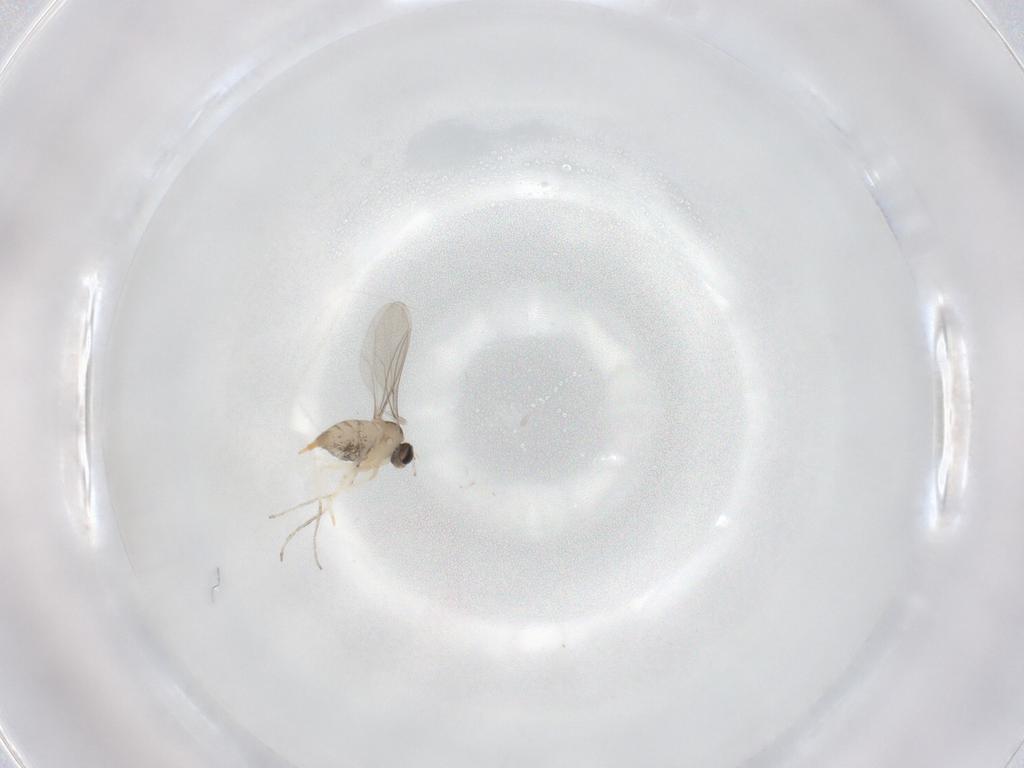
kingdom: Animalia
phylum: Arthropoda
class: Insecta
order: Diptera
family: Cecidomyiidae
